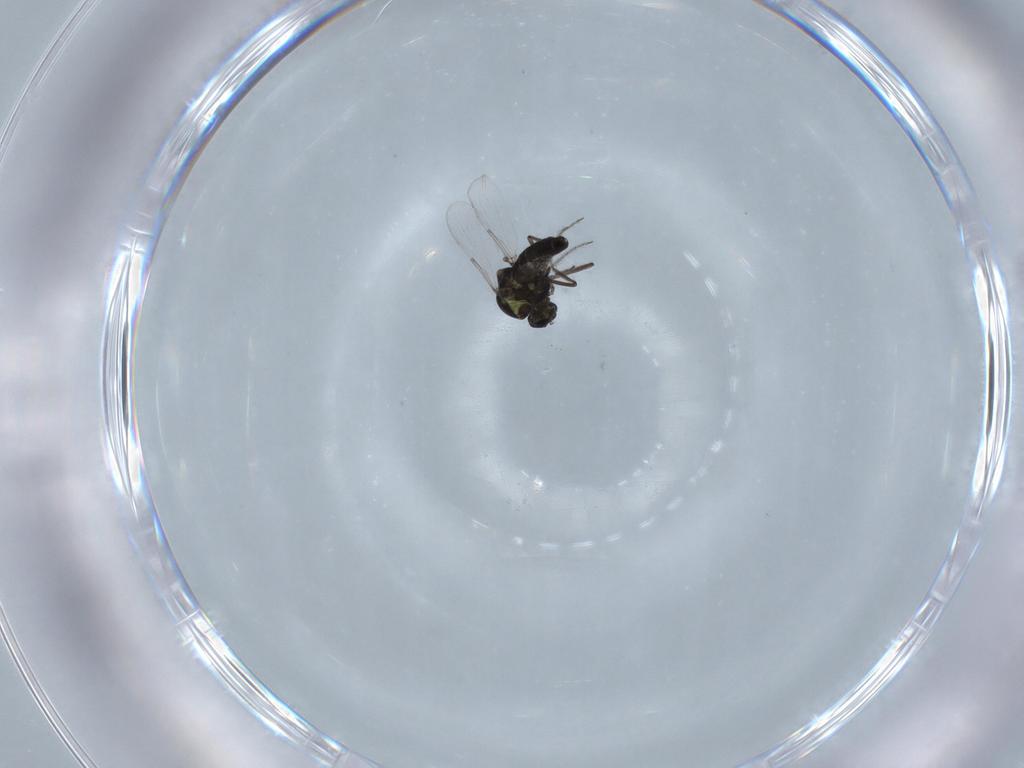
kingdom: Animalia
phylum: Arthropoda
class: Insecta
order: Diptera
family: Ceratopogonidae
